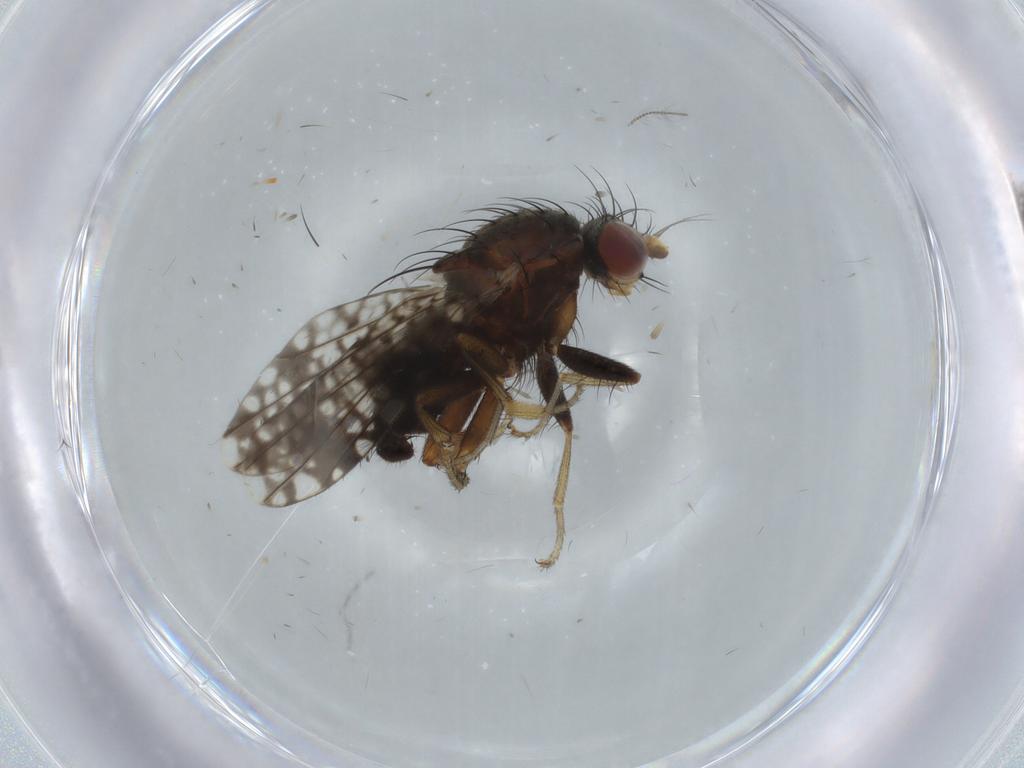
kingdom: Animalia
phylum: Arthropoda
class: Insecta
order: Diptera
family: Tephritidae
